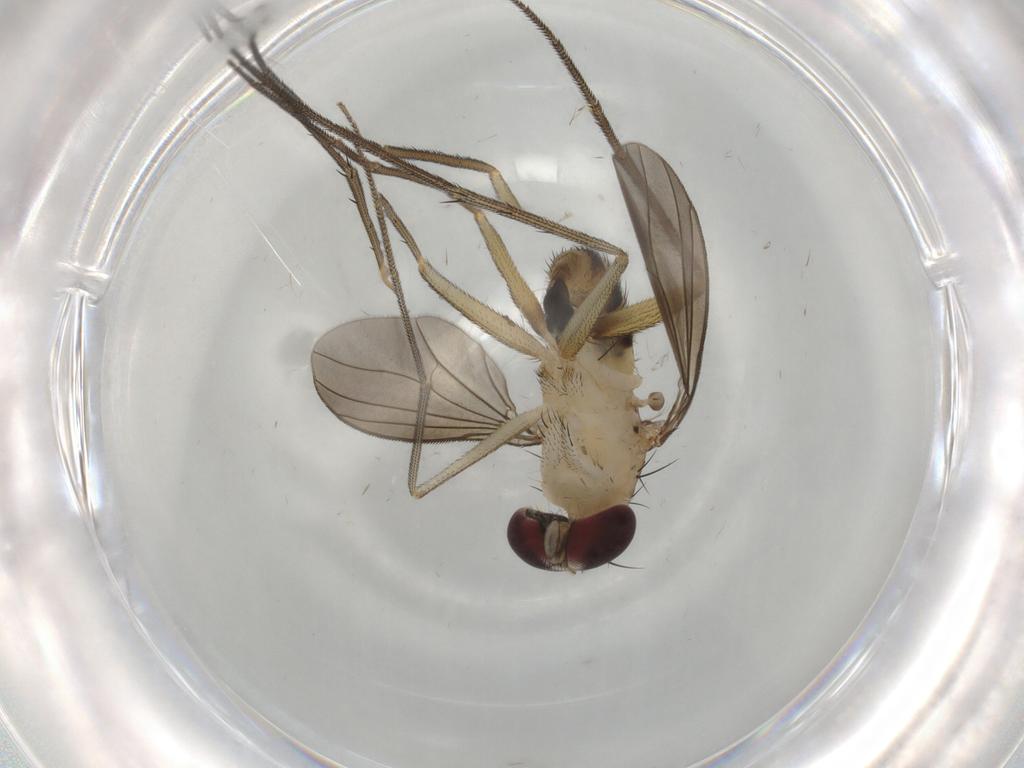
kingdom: Animalia
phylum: Arthropoda
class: Insecta
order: Diptera
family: Dolichopodidae
